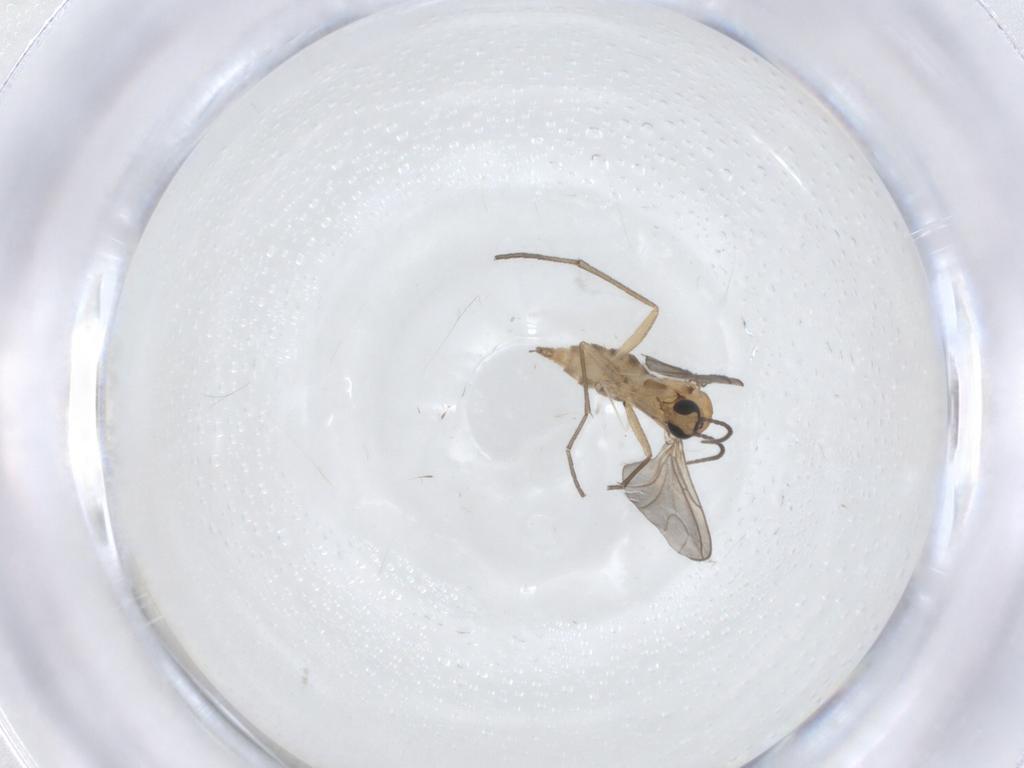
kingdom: Animalia
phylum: Arthropoda
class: Insecta
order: Diptera
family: Sciaridae
